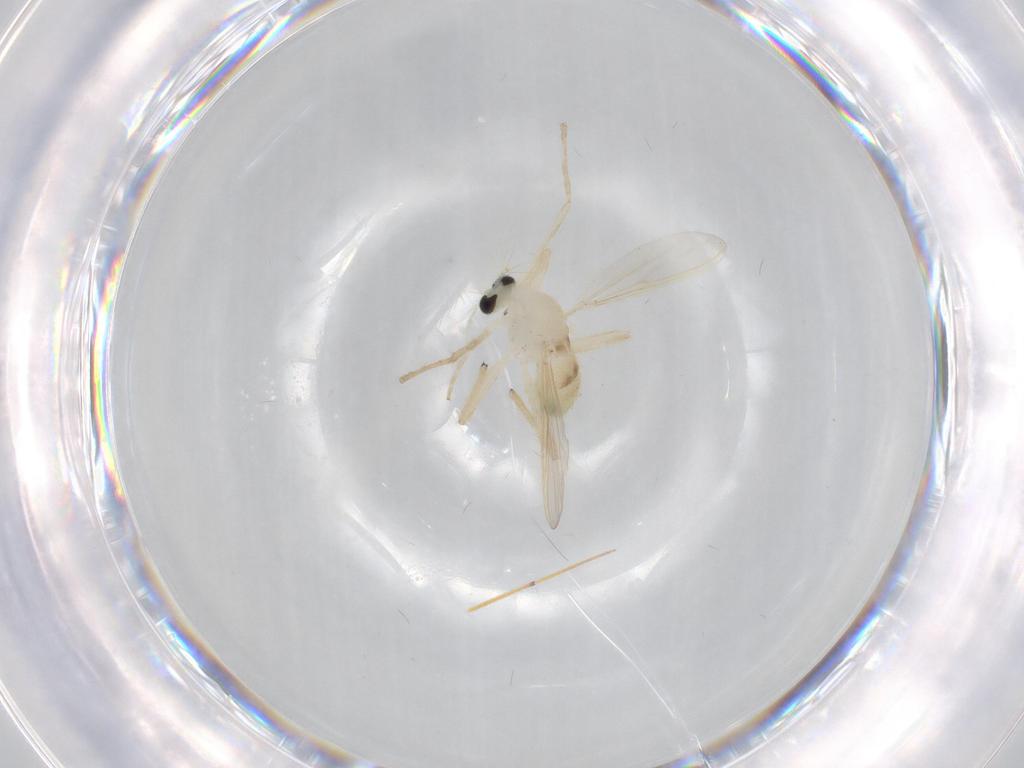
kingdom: Animalia
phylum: Arthropoda
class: Insecta
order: Diptera
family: Chironomidae
